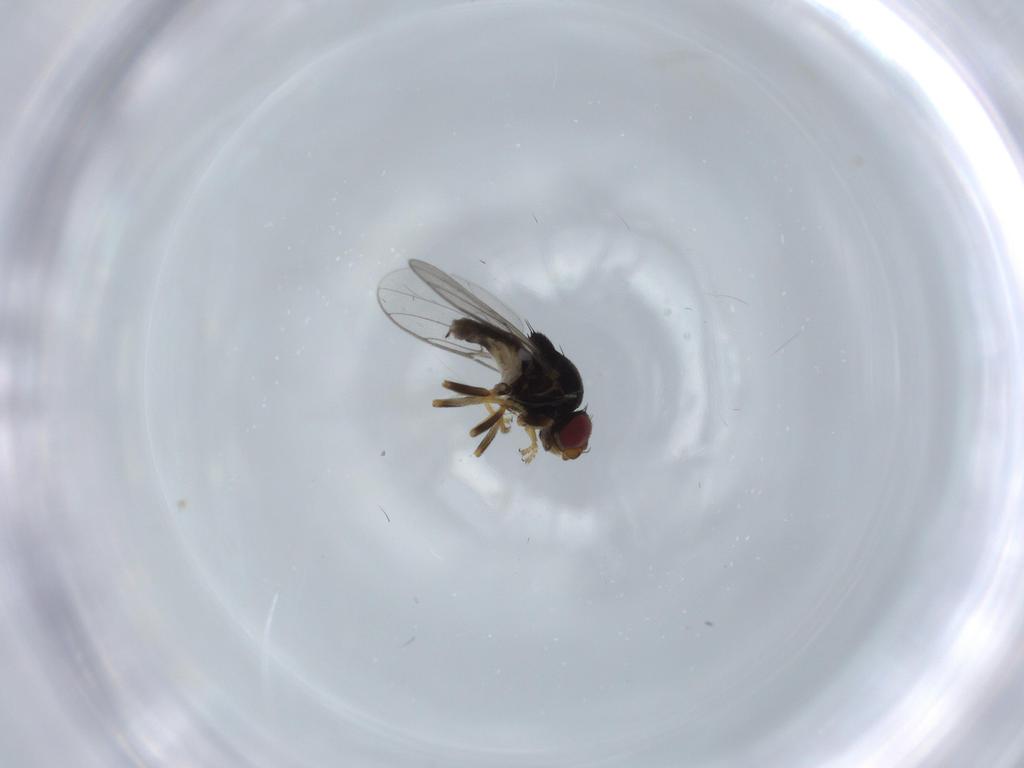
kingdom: Animalia
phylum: Arthropoda
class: Insecta
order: Diptera
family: Chloropidae
